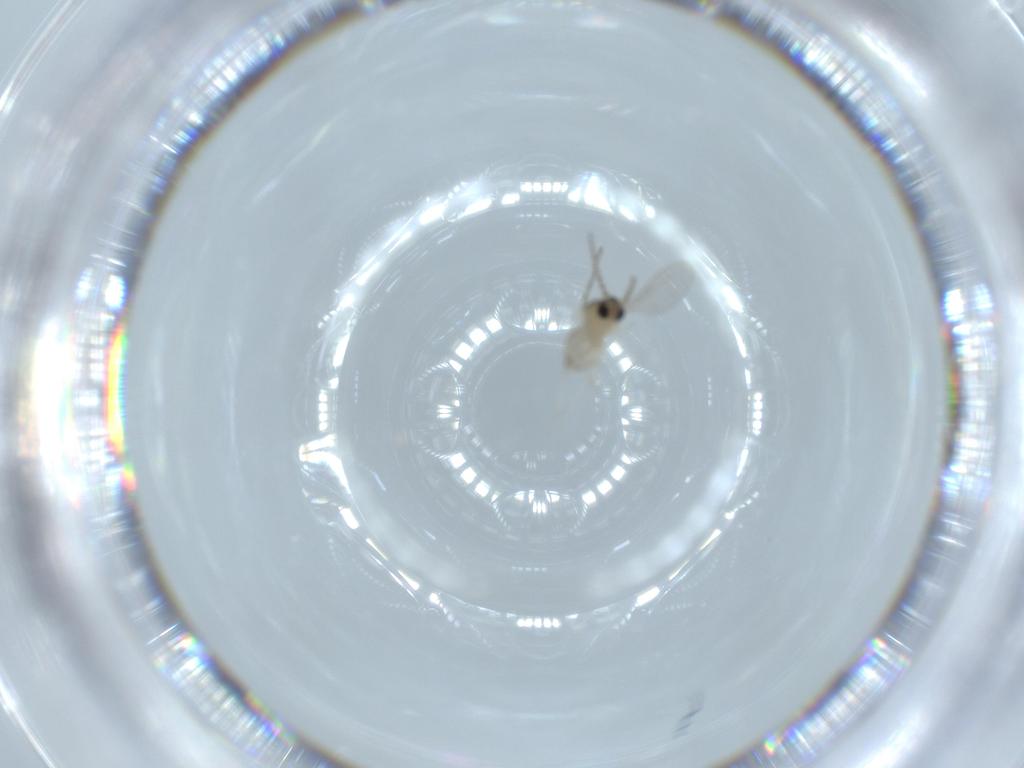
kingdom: Animalia
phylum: Arthropoda
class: Insecta
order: Diptera
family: Cecidomyiidae
